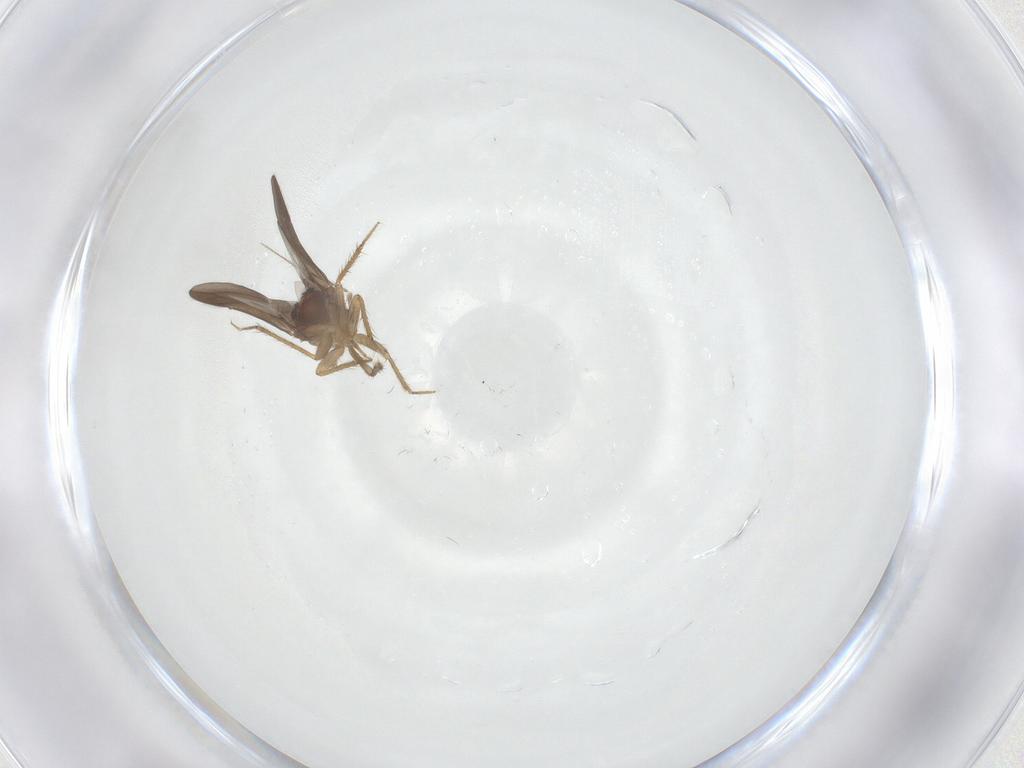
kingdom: Animalia
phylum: Arthropoda
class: Insecta
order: Hemiptera
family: Ceratocombidae
